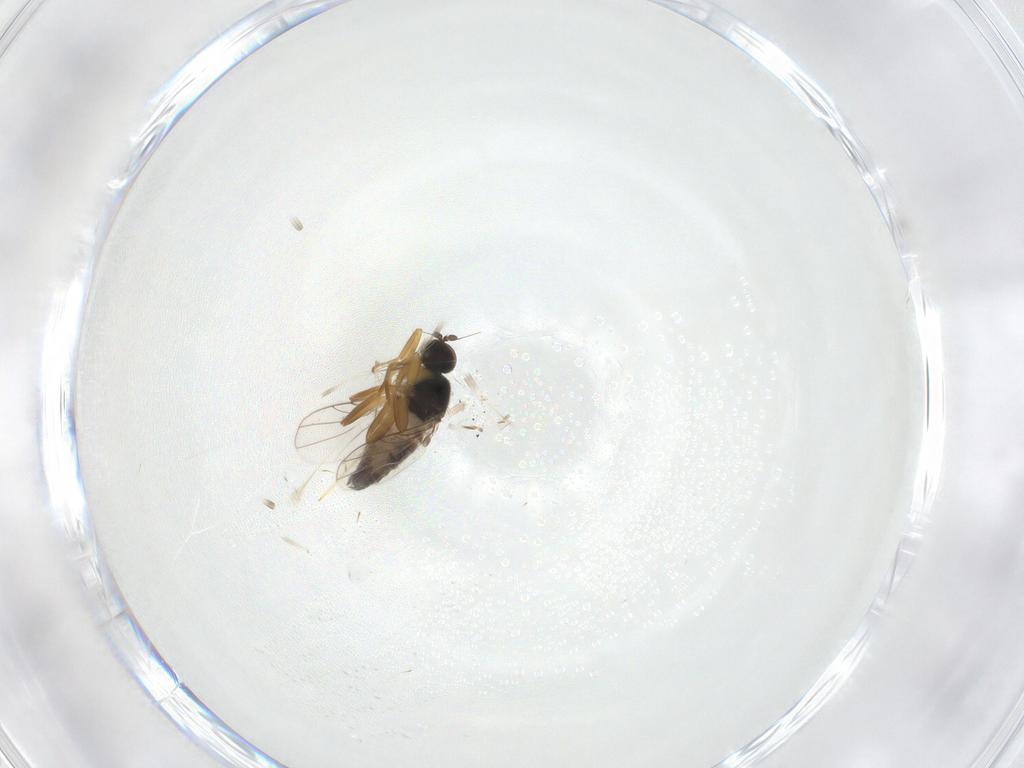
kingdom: Animalia
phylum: Arthropoda
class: Insecta
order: Diptera
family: Hybotidae
